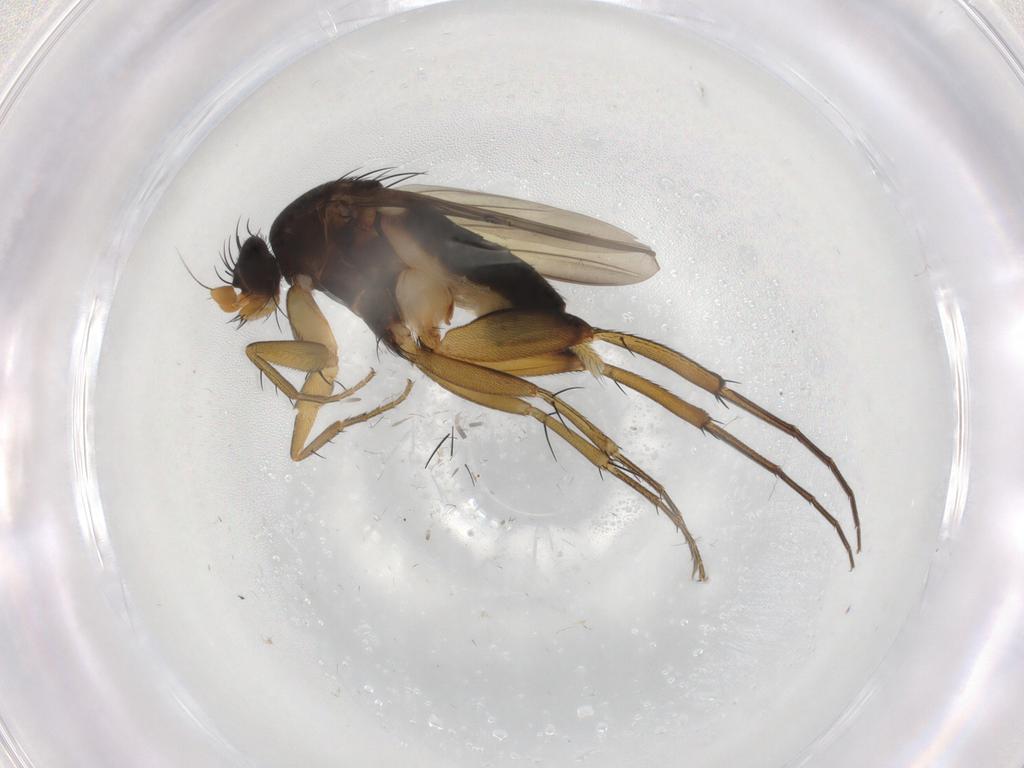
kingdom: Animalia
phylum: Arthropoda
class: Insecta
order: Diptera
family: Phoridae
